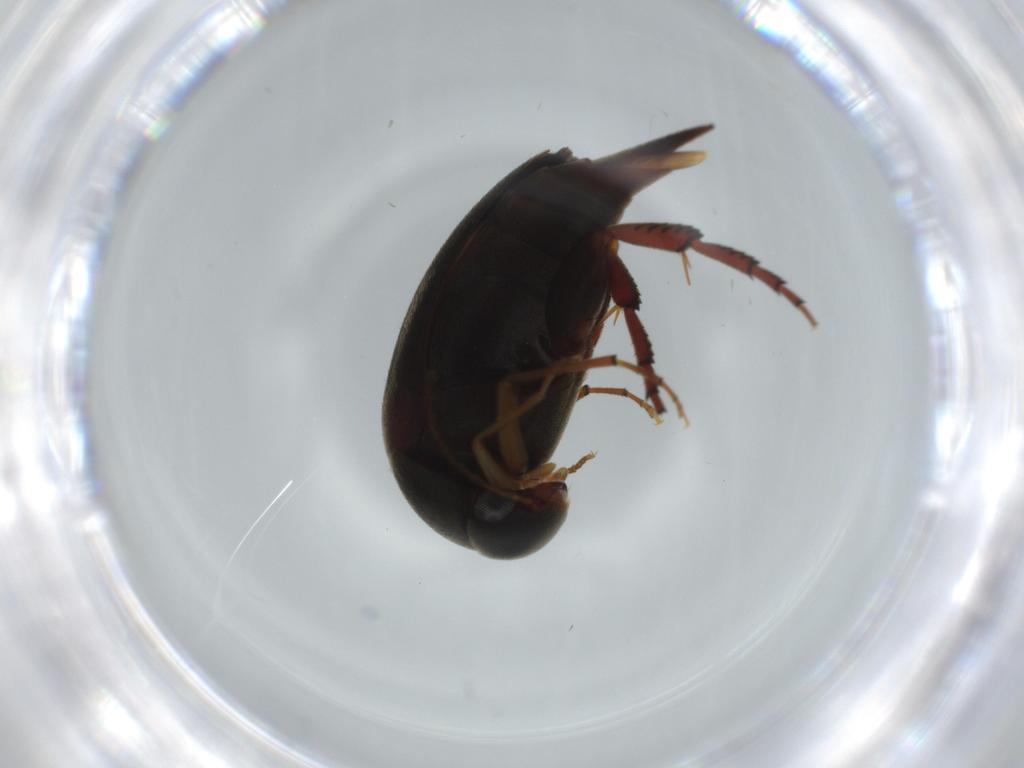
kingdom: Animalia
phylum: Arthropoda
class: Insecta
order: Coleoptera
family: Mordellidae
